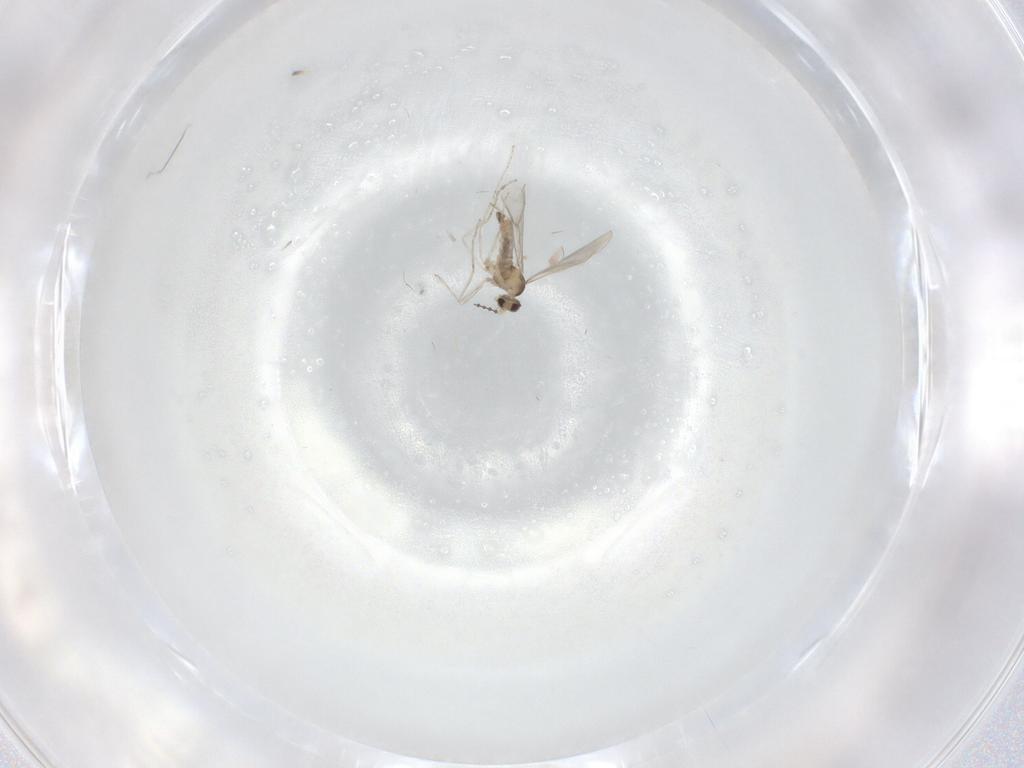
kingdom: Animalia
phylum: Arthropoda
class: Insecta
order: Diptera
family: Cecidomyiidae
